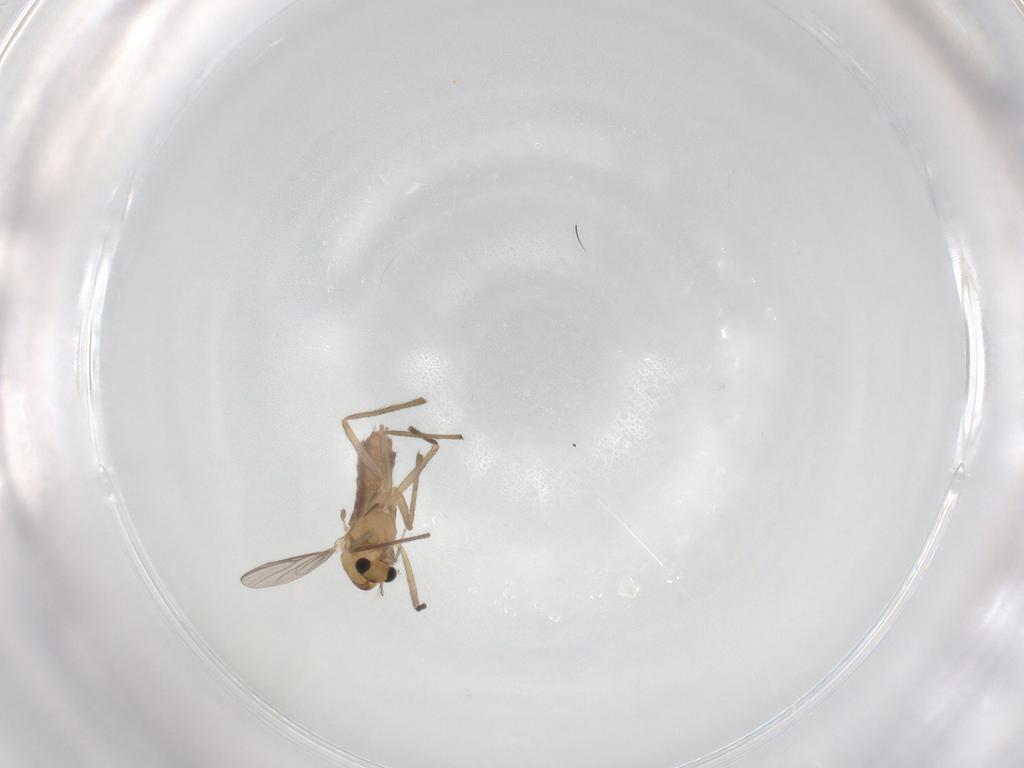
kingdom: Animalia
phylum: Arthropoda
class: Insecta
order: Diptera
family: Chironomidae
